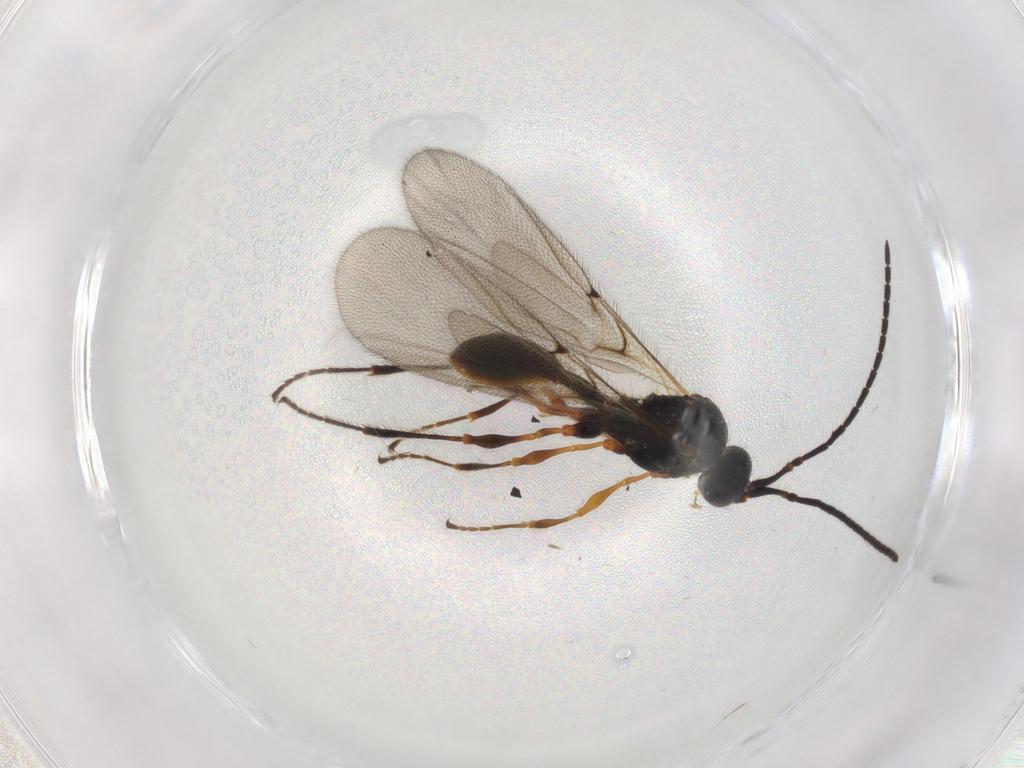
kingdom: Animalia
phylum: Arthropoda
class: Insecta
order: Hymenoptera
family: Diapriidae
